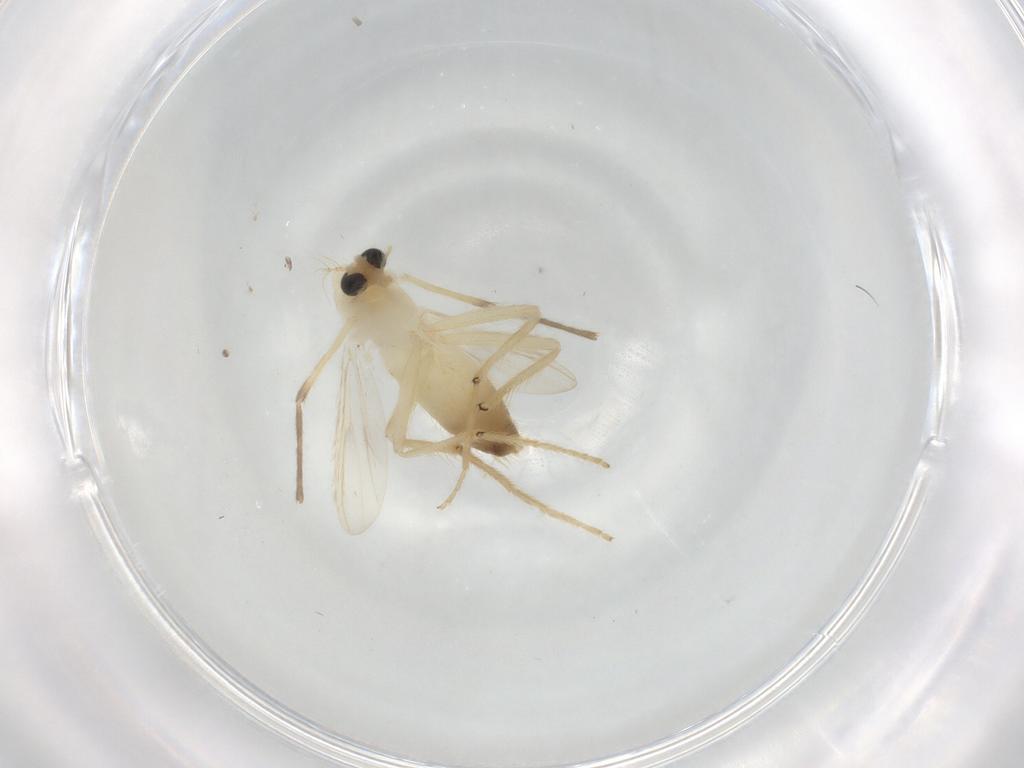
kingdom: Animalia
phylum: Arthropoda
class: Insecta
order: Diptera
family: Chironomidae
